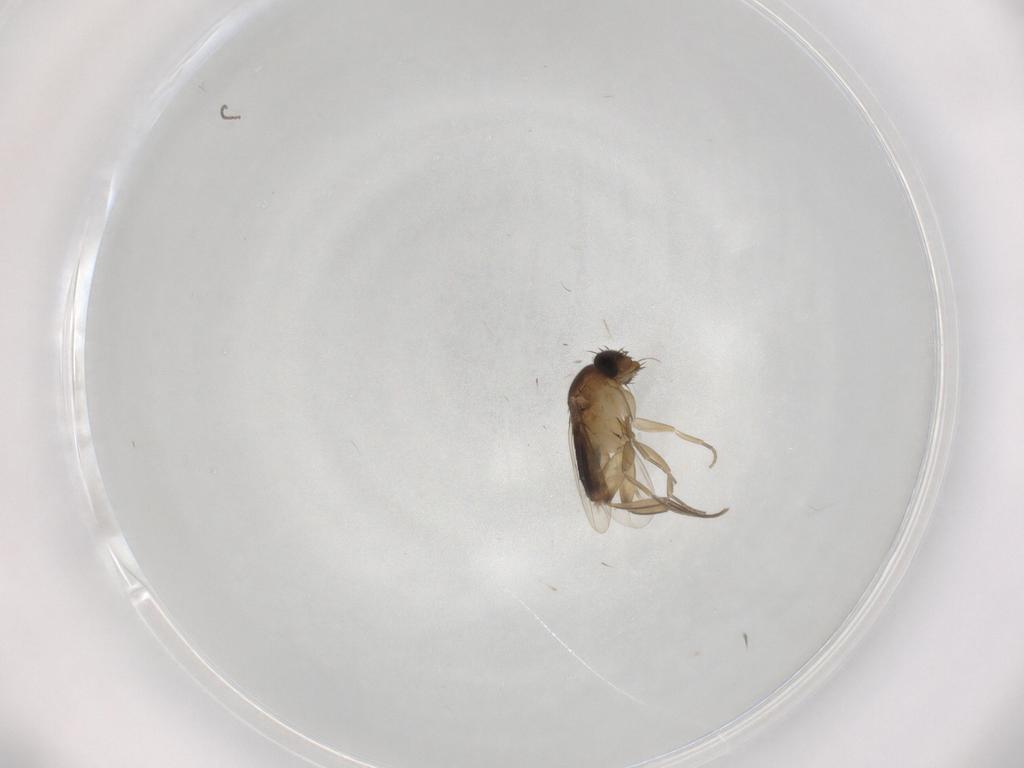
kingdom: Animalia
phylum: Arthropoda
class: Insecta
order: Diptera
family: Phoridae
